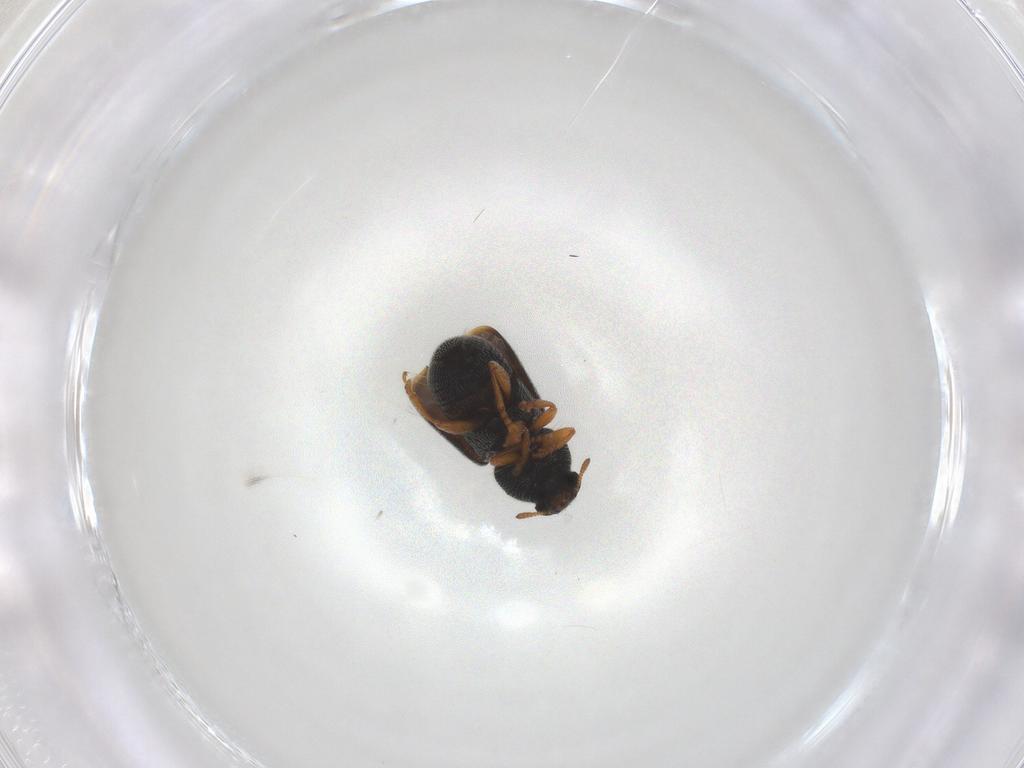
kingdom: Animalia
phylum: Arthropoda
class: Insecta
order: Coleoptera
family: Anthribidae
